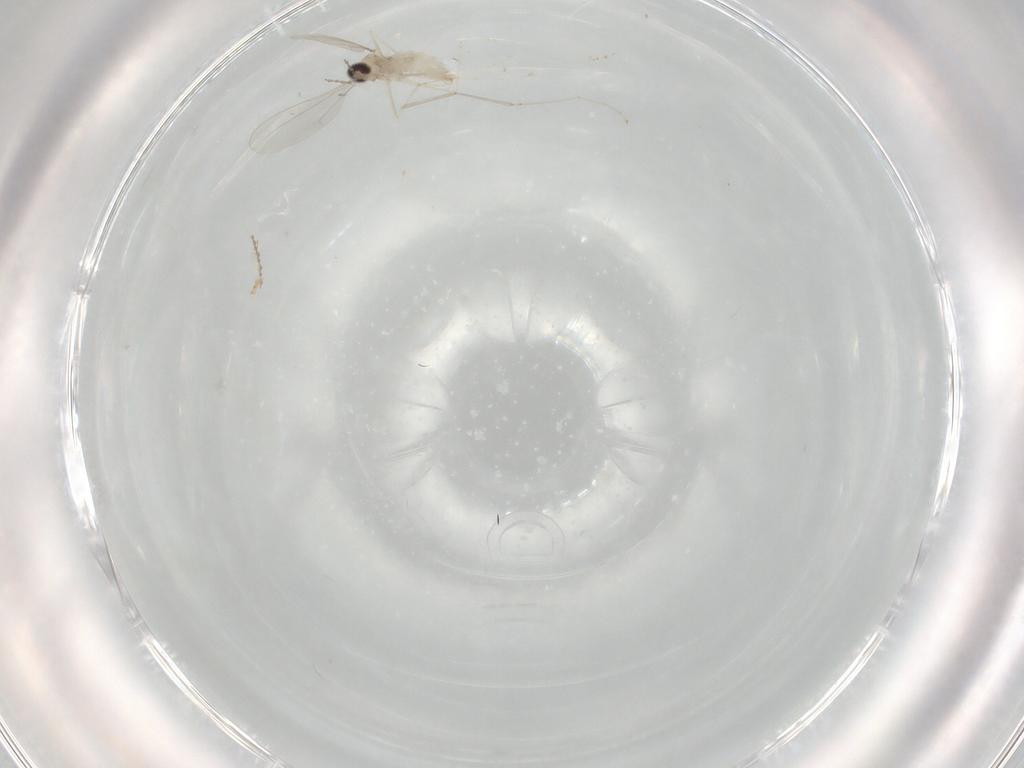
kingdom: Animalia
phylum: Arthropoda
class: Insecta
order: Diptera
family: Cecidomyiidae
